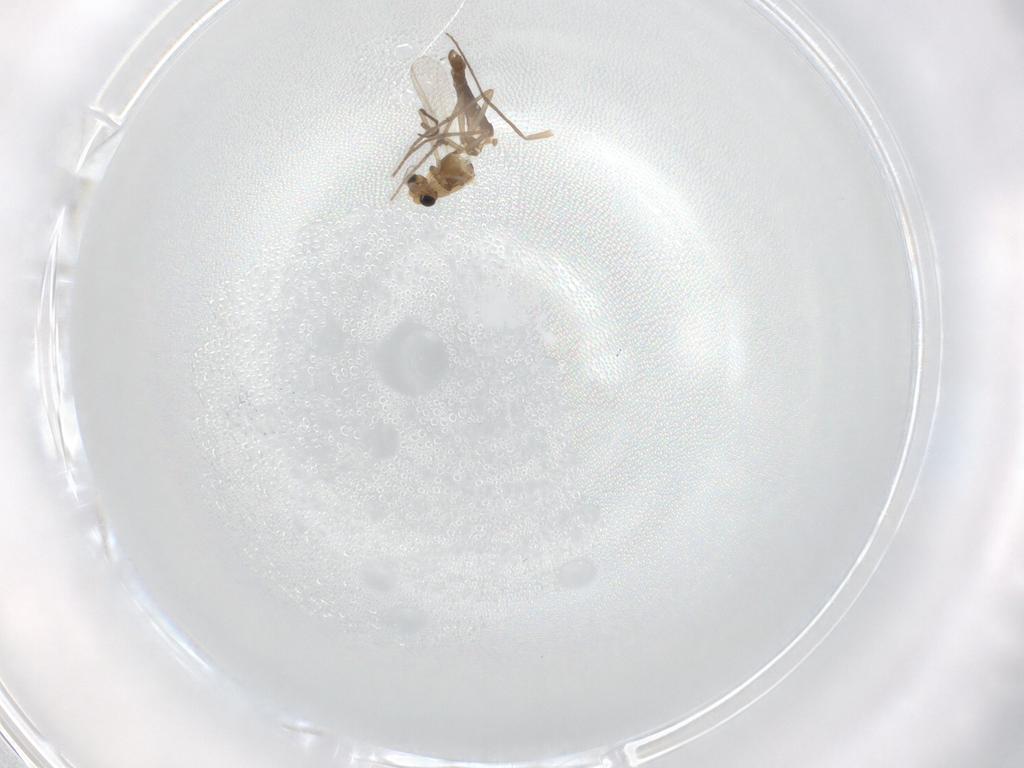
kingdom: Animalia
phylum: Arthropoda
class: Insecta
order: Diptera
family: Chironomidae
